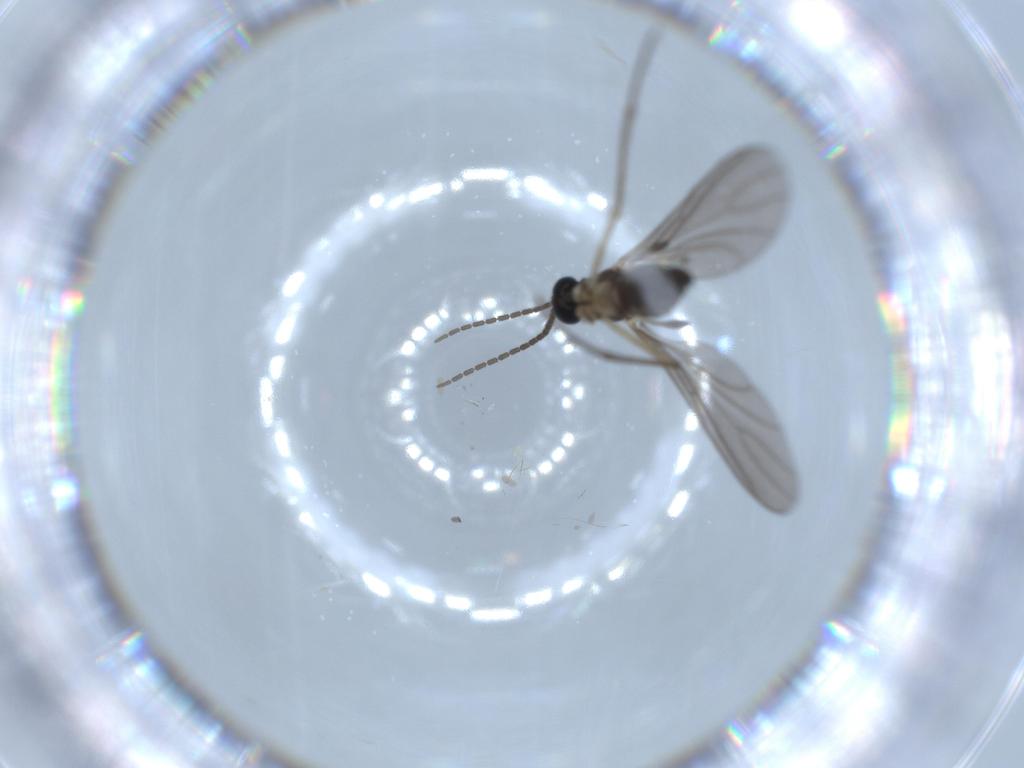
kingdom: Animalia
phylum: Arthropoda
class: Insecta
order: Diptera
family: Sciaridae
